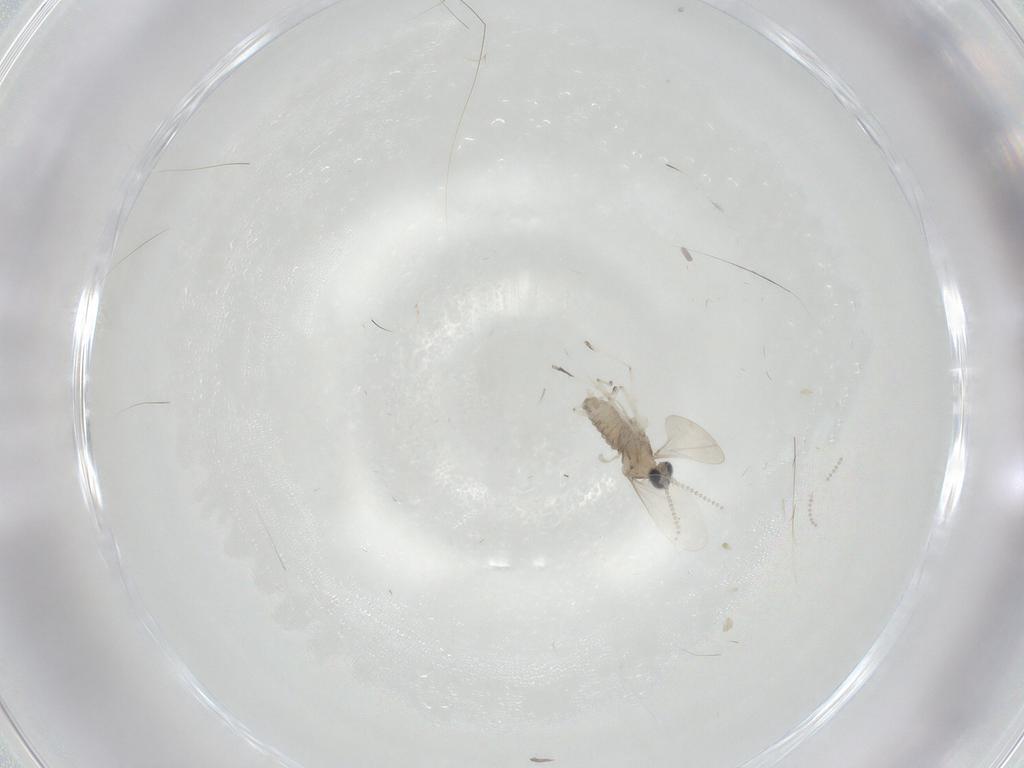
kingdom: Animalia
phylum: Arthropoda
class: Insecta
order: Diptera
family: Cecidomyiidae
